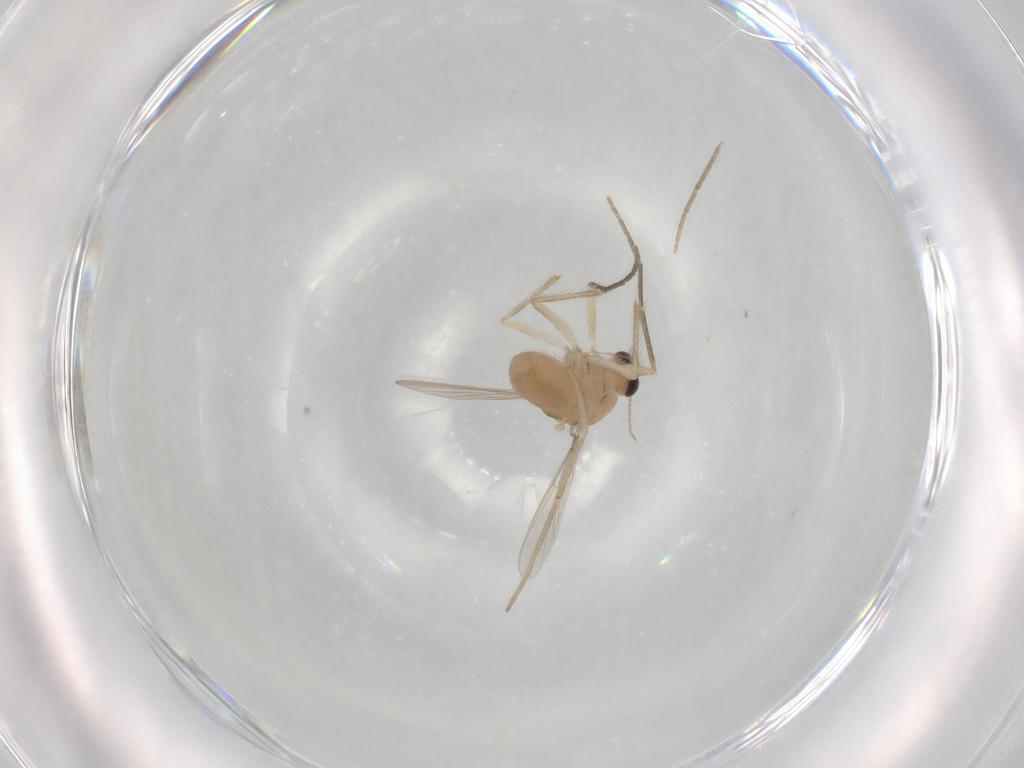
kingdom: Animalia
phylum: Arthropoda
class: Insecta
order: Diptera
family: Chironomidae
